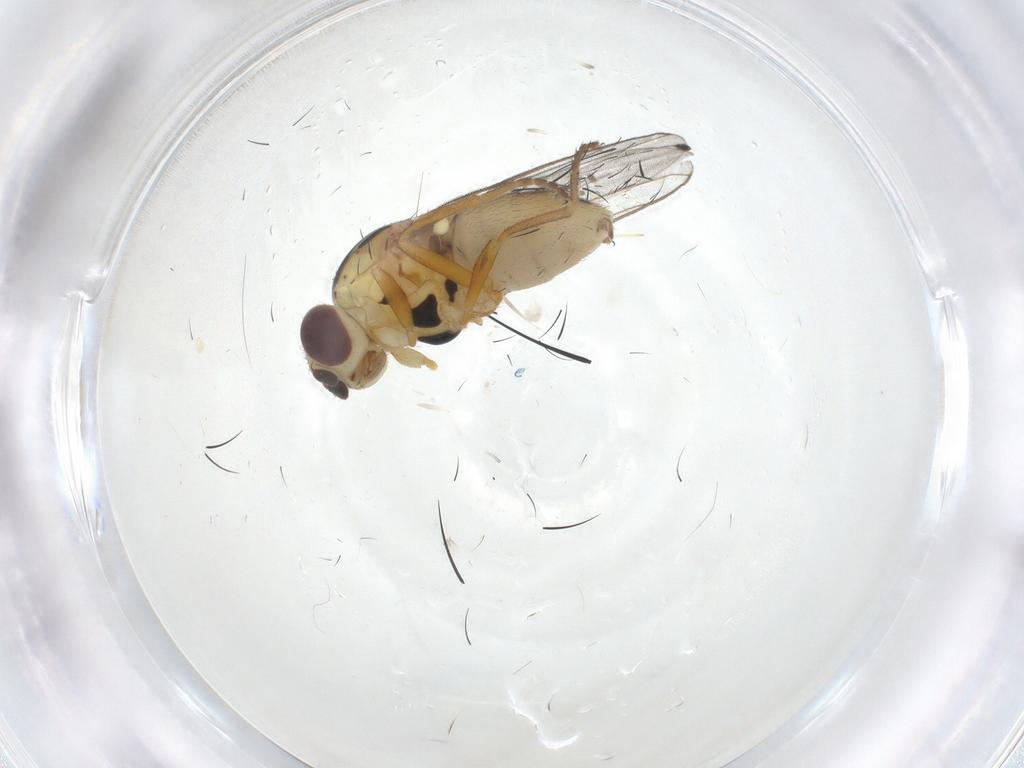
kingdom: Animalia
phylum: Arthropoda
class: Insecta
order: Diptera
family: Chloropidae
